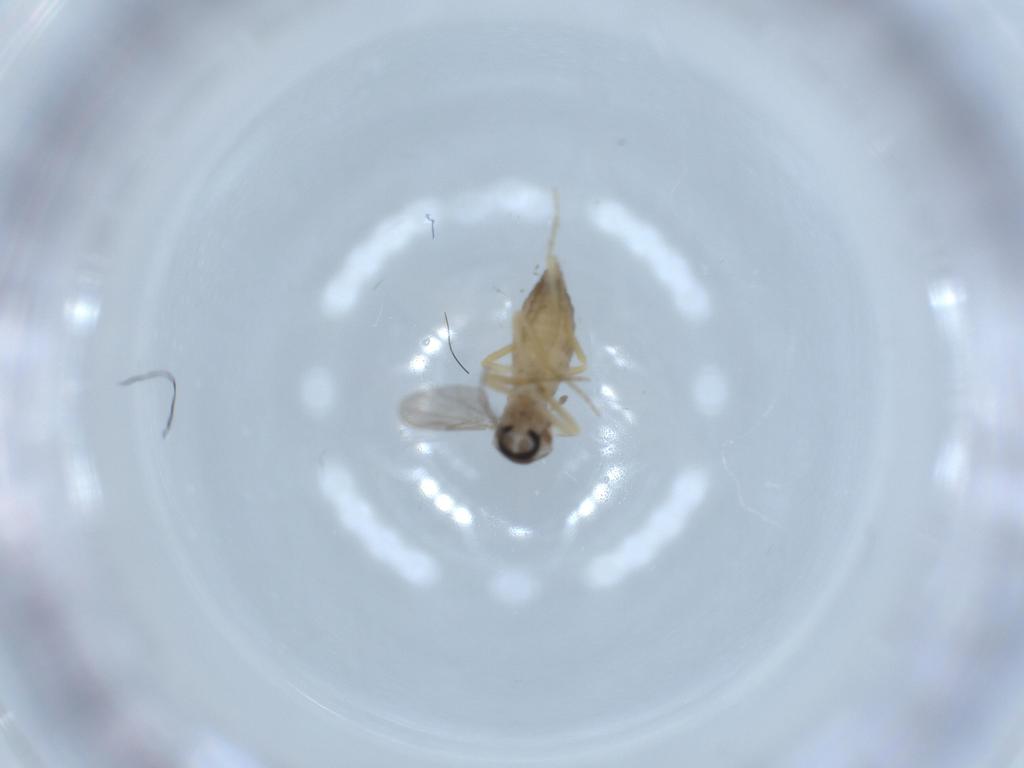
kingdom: Animalia
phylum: Arthropoda
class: Insecta
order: Diptera
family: Ceratopogonidae
